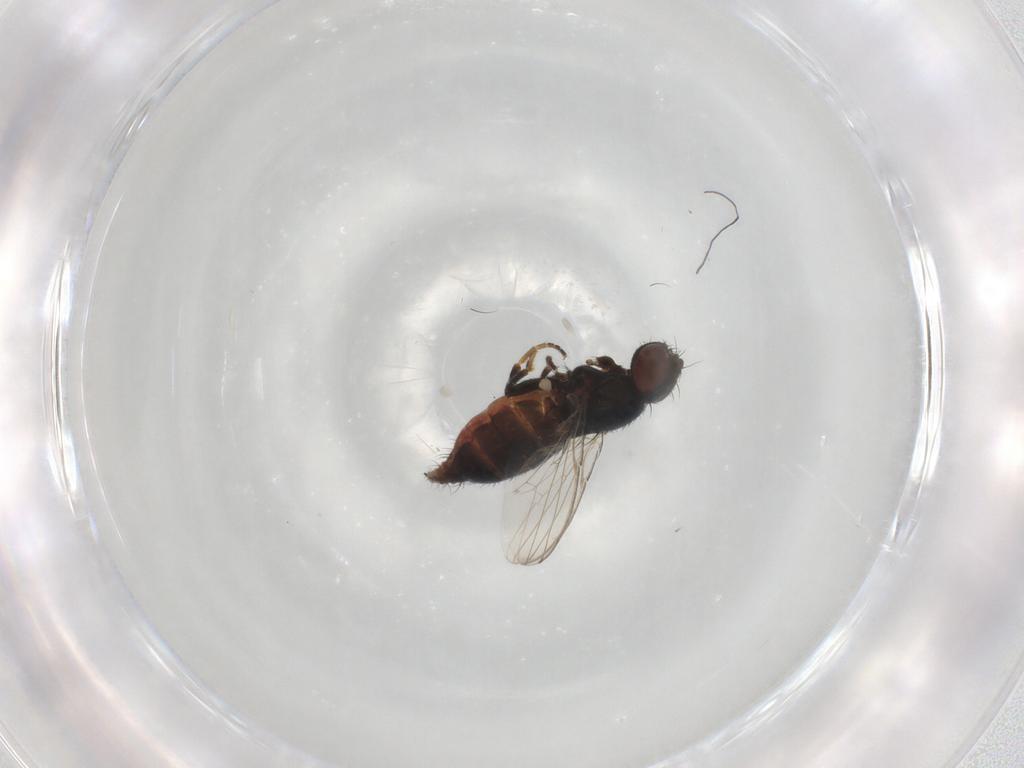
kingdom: Animalia
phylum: Arthropoda
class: Insecta
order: Diptera
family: Milichiidae
